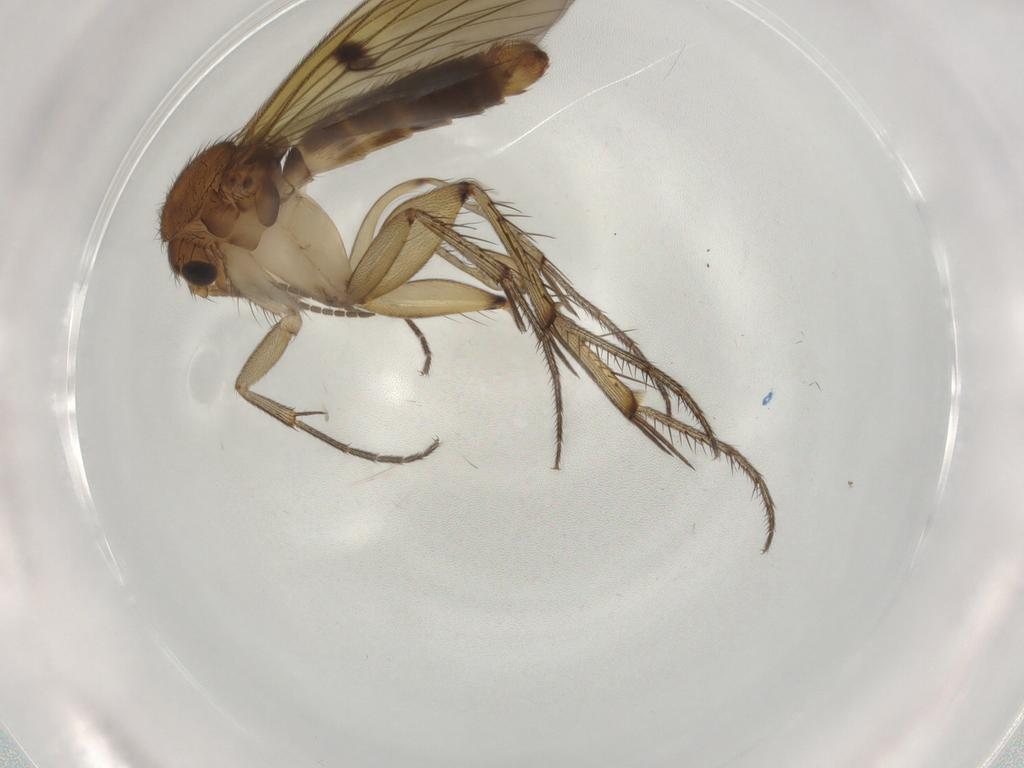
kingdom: Animalia
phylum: Arthropoda
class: Insecta
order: Diptera
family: Mycetophilidae
